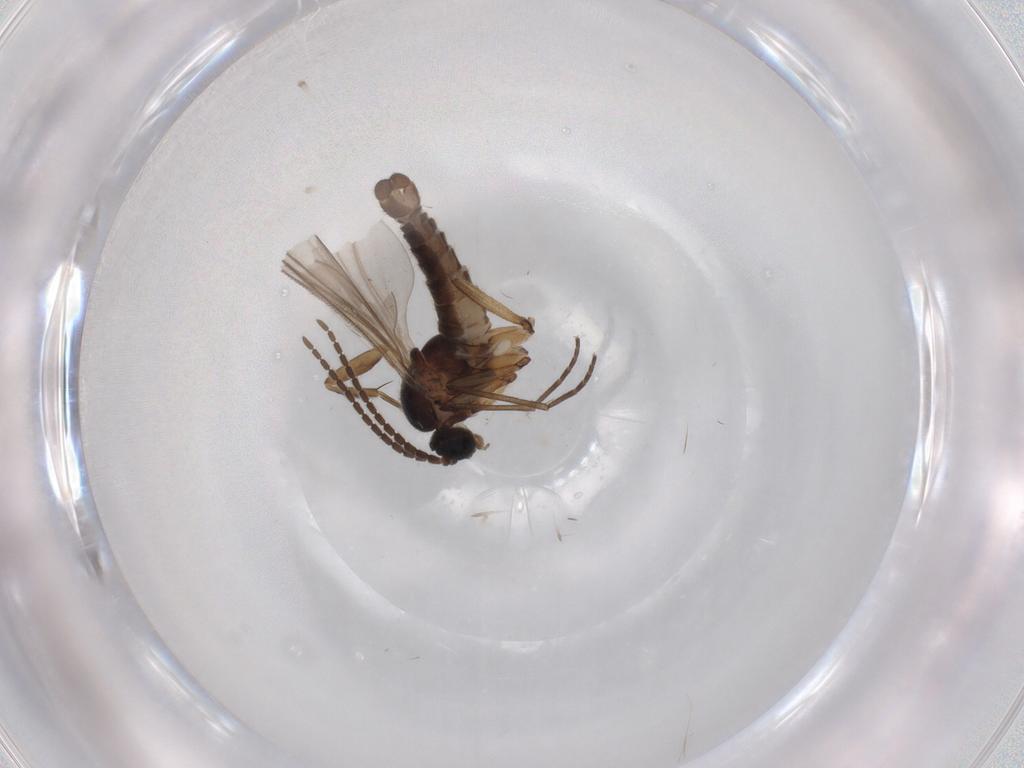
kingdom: Animalia
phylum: Arthropoda
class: Insecta
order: Diptera
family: Sciaridae
